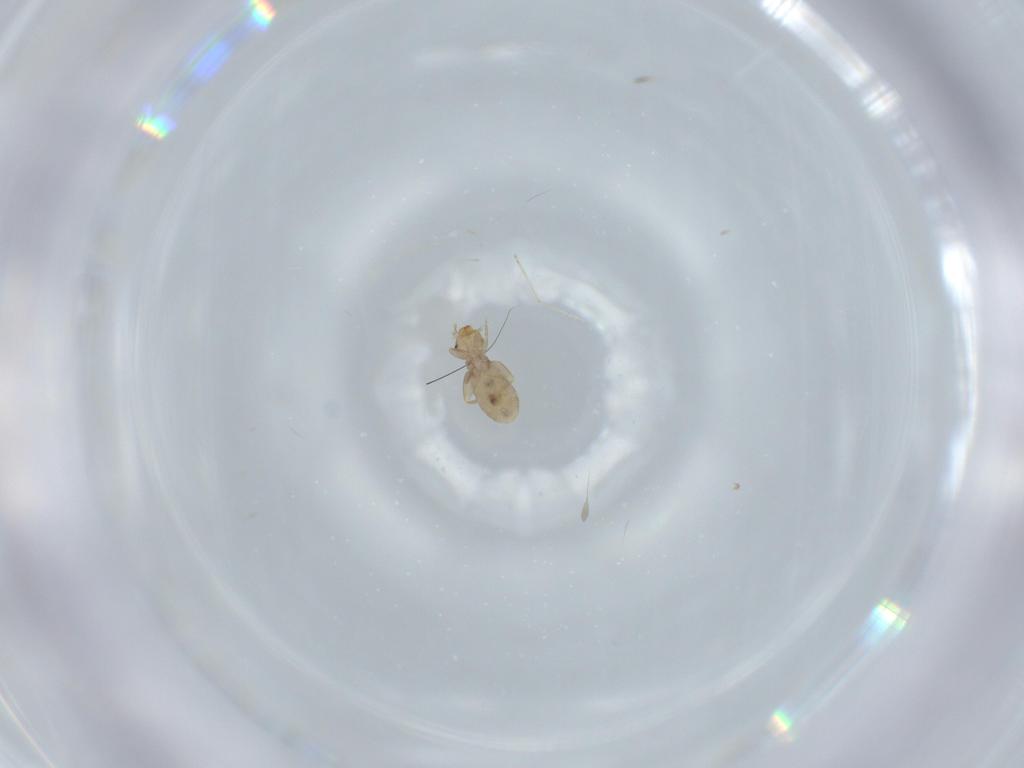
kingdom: Animalia
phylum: Arthropoda
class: Insecta
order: Psocodea
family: Liposcelididae
